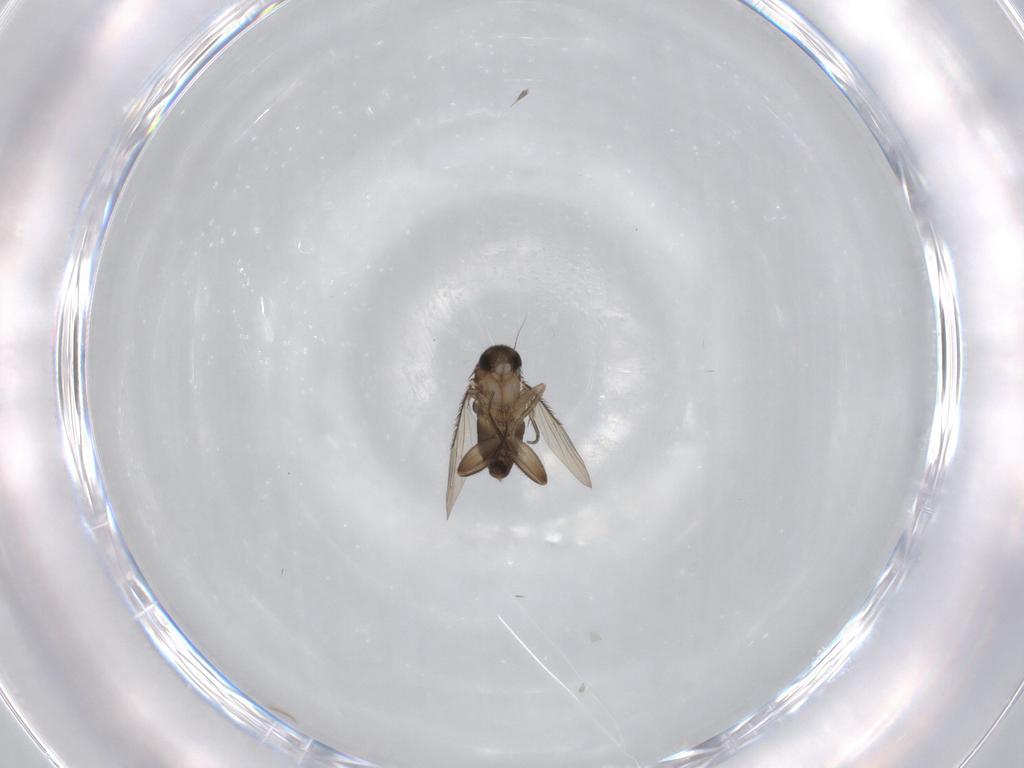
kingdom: Animalia
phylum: Arthropoda
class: Insecta
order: Diptera
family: Phoridae
